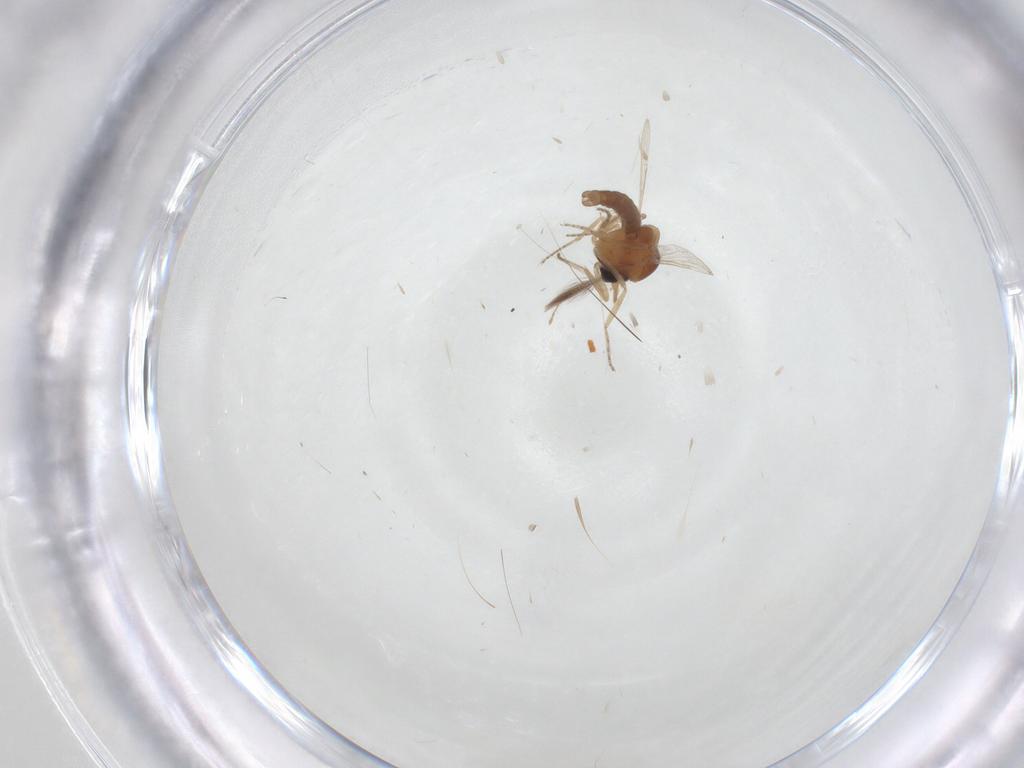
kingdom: Animalia
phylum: Arthropoda
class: Insecta
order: Diptera
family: Ceratopogonidae
